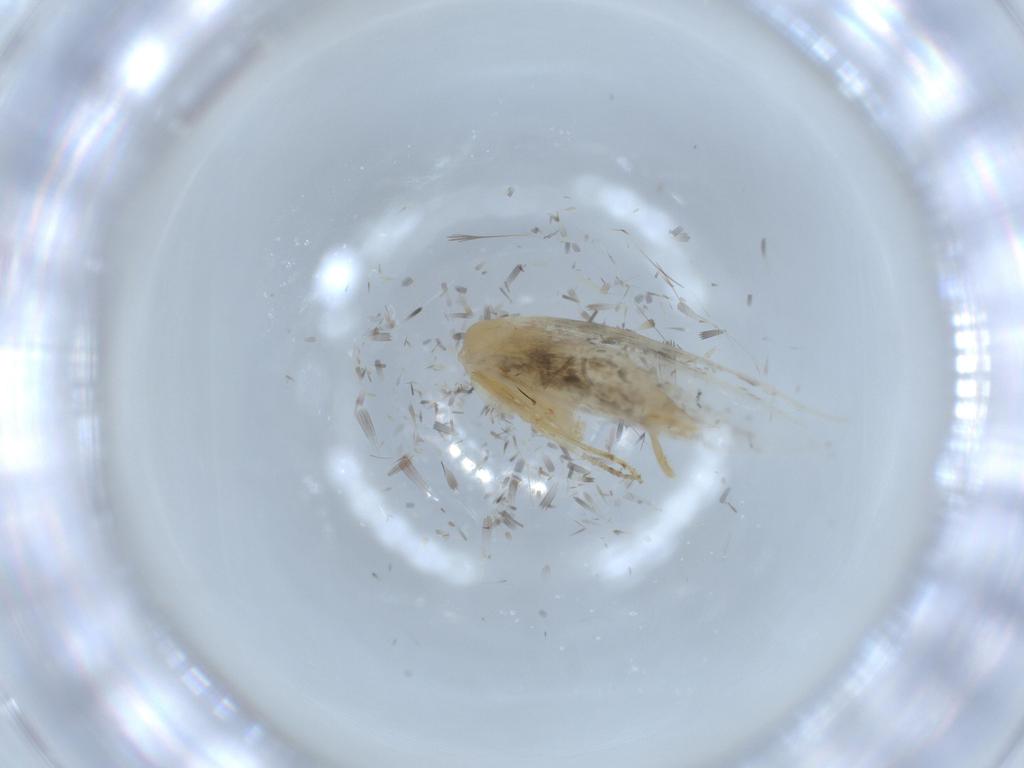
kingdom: Animalia
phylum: Arthropoda
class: Insecta
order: Lepidoptera
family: Tineidae
